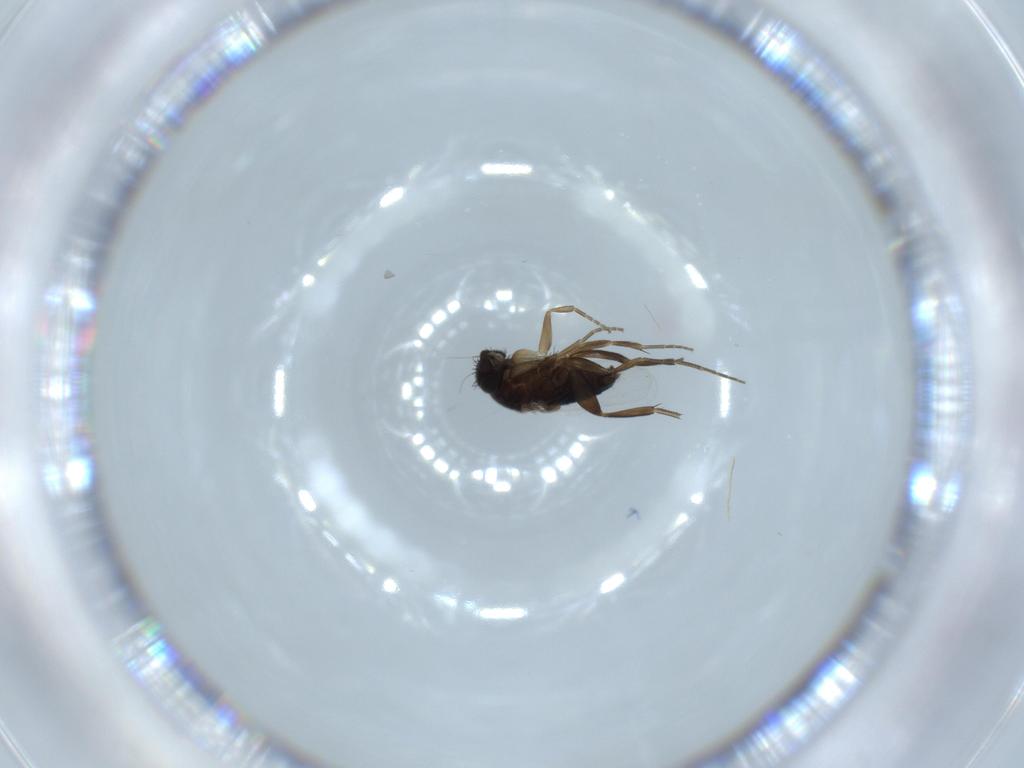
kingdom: Animalia
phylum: Arthropoda
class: Insecta
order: Diptera
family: Phoridae
